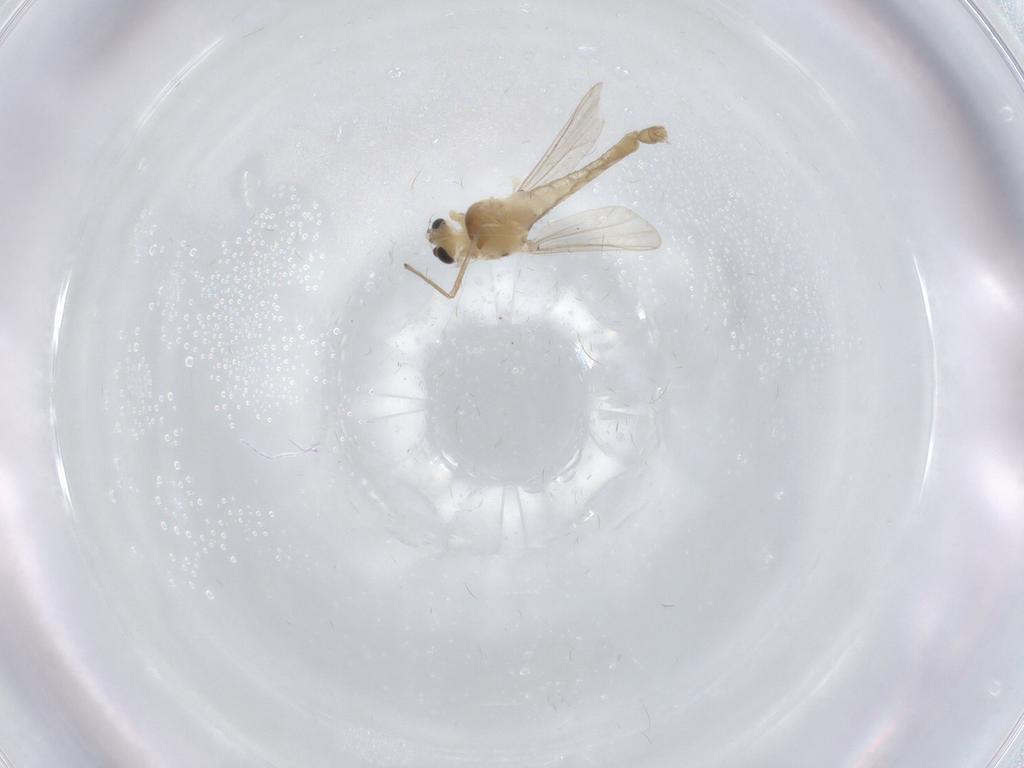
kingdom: Animalia
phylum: Arthropoda
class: Insecta
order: Diptera
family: Chironomidae
